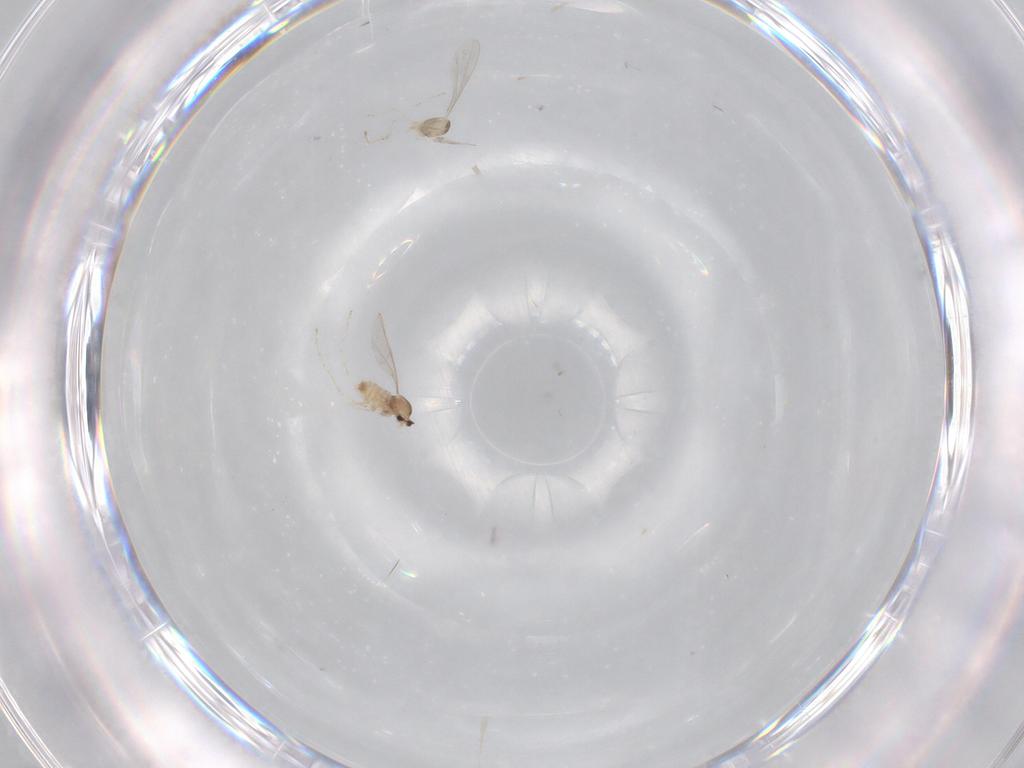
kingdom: Animalia
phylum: Arthropoda
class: Insecta
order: Diptera
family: Cecidomyiidae
